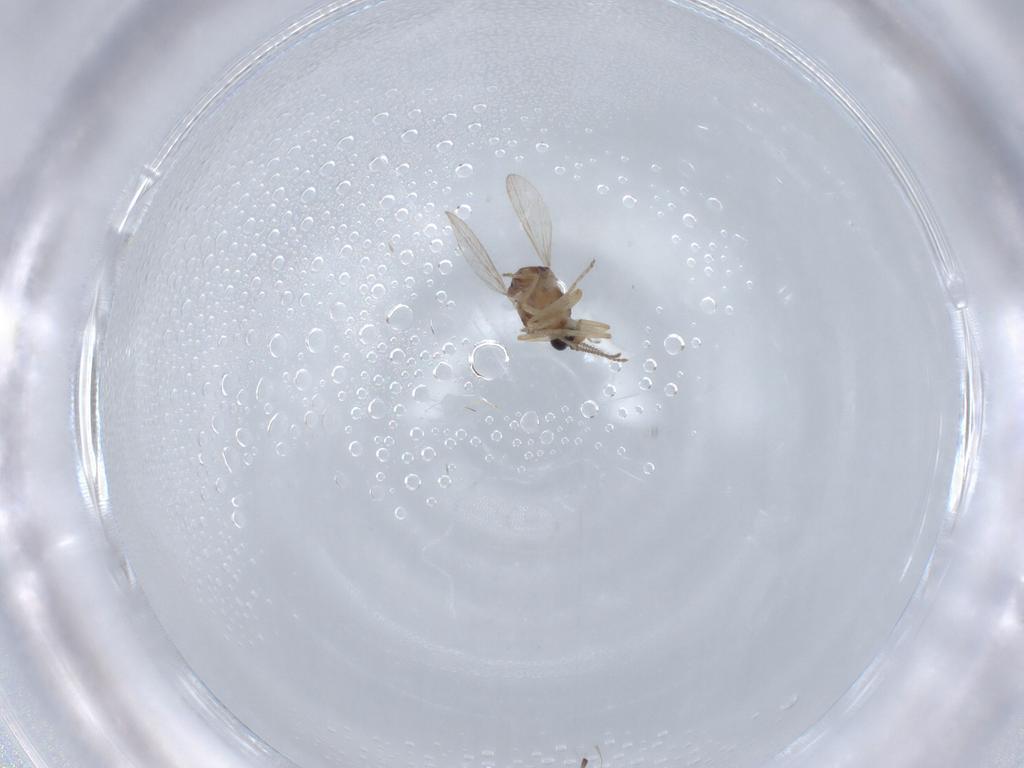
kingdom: Animalia
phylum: Arthropoda
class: Insecta
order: Diptera
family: Ceratopogonidae
